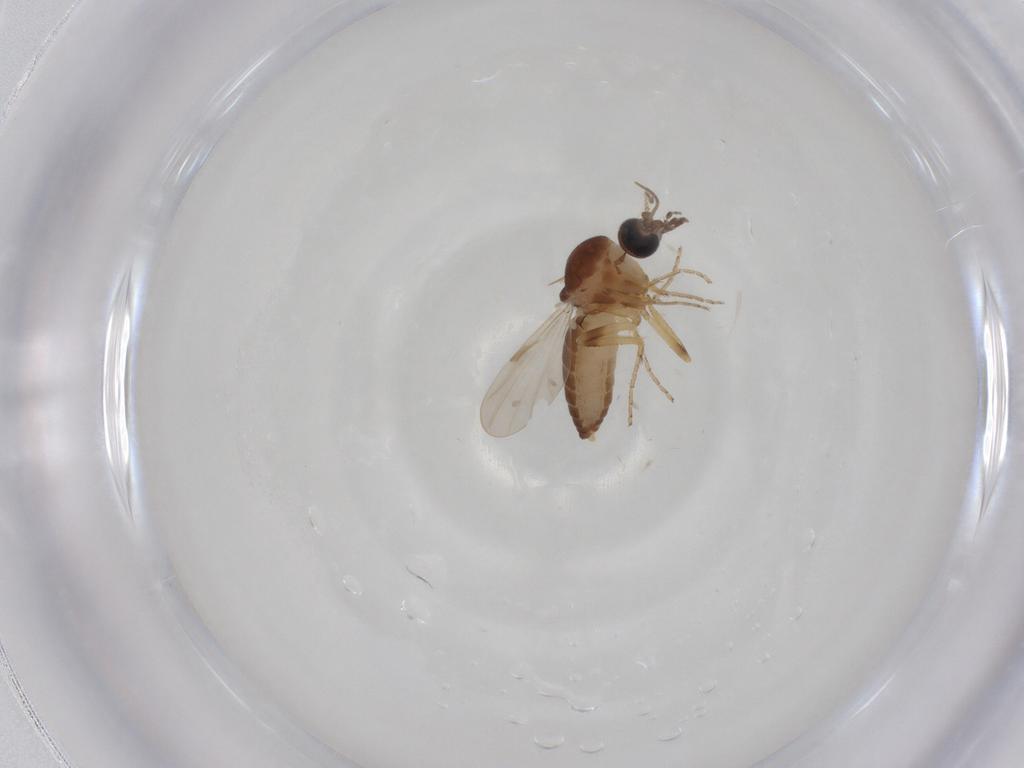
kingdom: Animalia
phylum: Arthropoda
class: Insecta
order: Diptera
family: Ceratopogonidae
